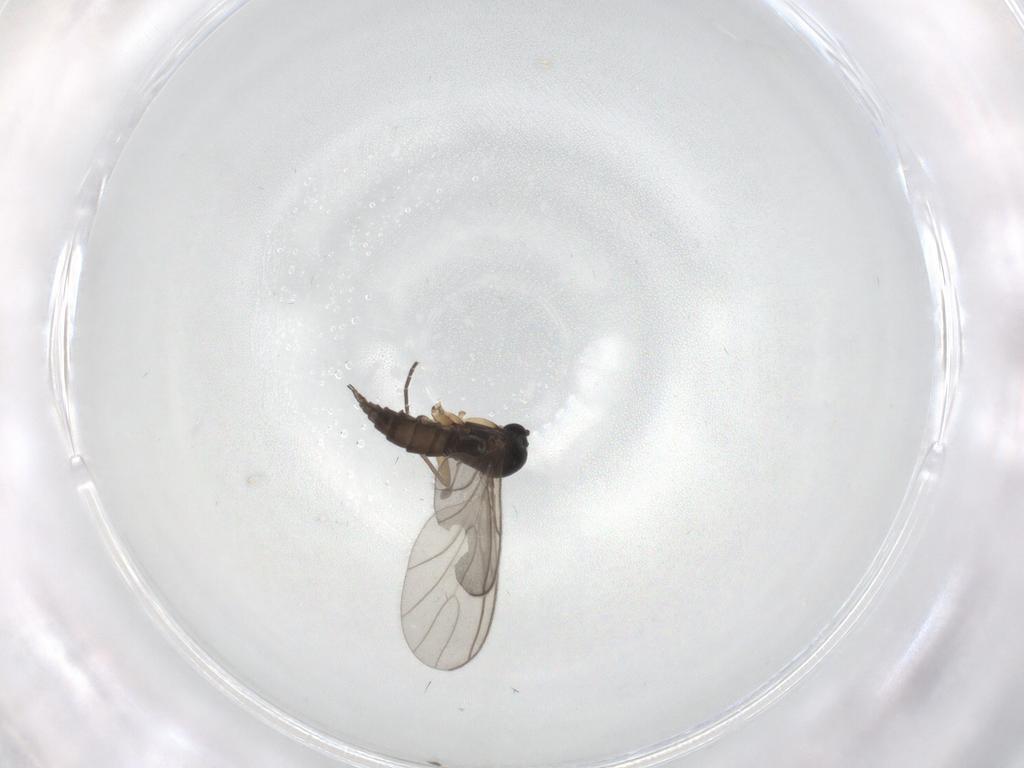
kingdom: Animalia
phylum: Arthropoda
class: Insecta
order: Diptera
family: Sciaridae
